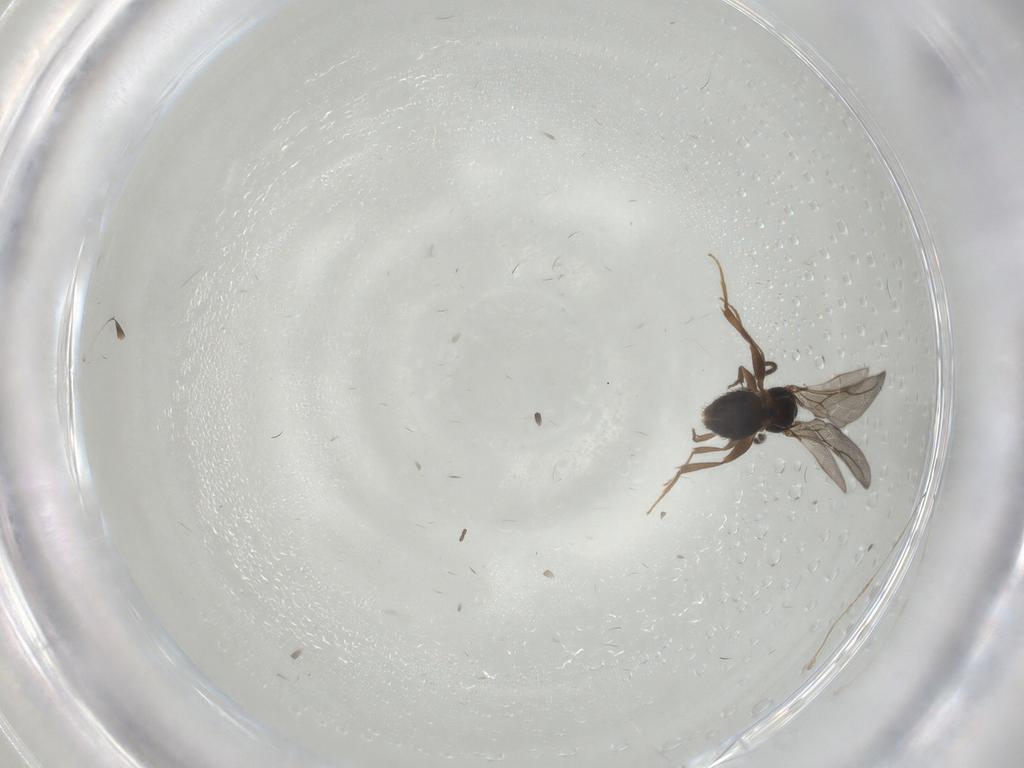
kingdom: Animalia
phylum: Arthropoda
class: Insecta
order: Hymenoptera
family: Bethylidae
